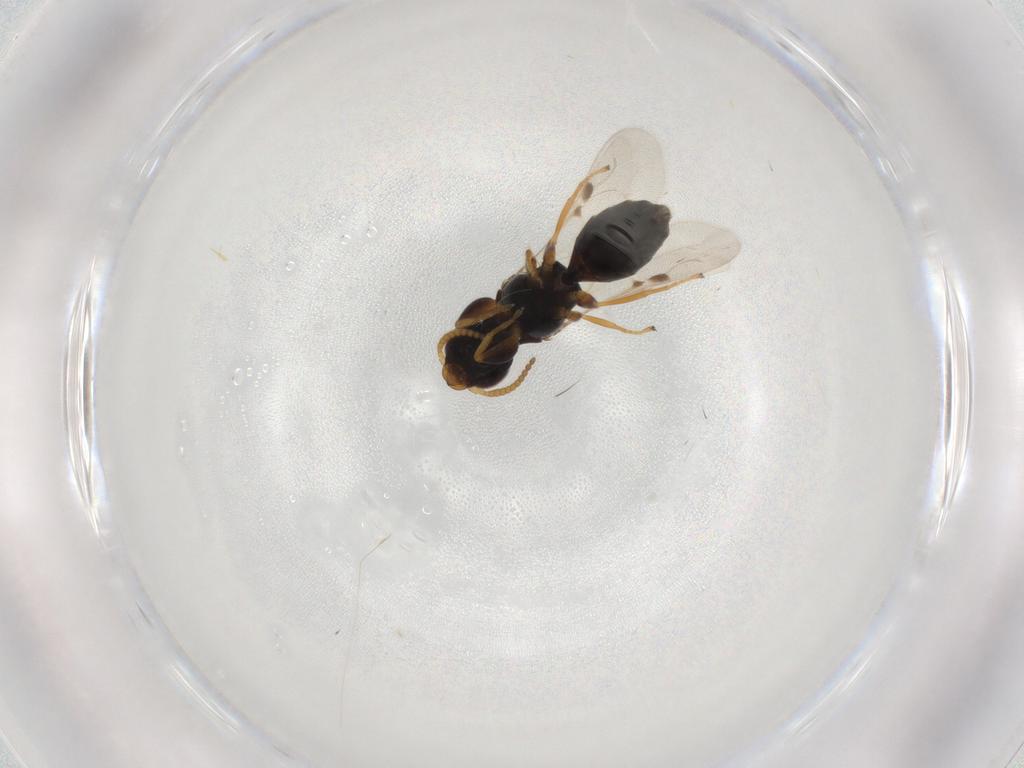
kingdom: Animalia
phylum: Arthropoda
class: Insecta
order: Hymenoptera
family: Bethylidae
